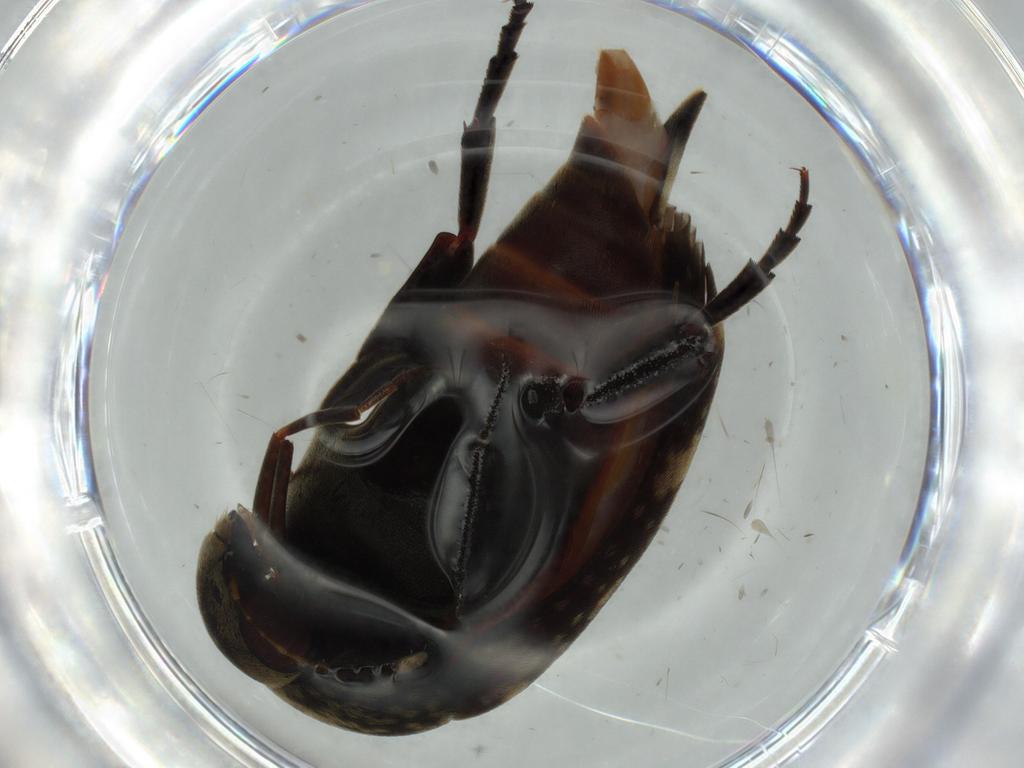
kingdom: Animalia
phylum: Arthropoda
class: Insecta
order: Coleoptera
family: Mordellidae
